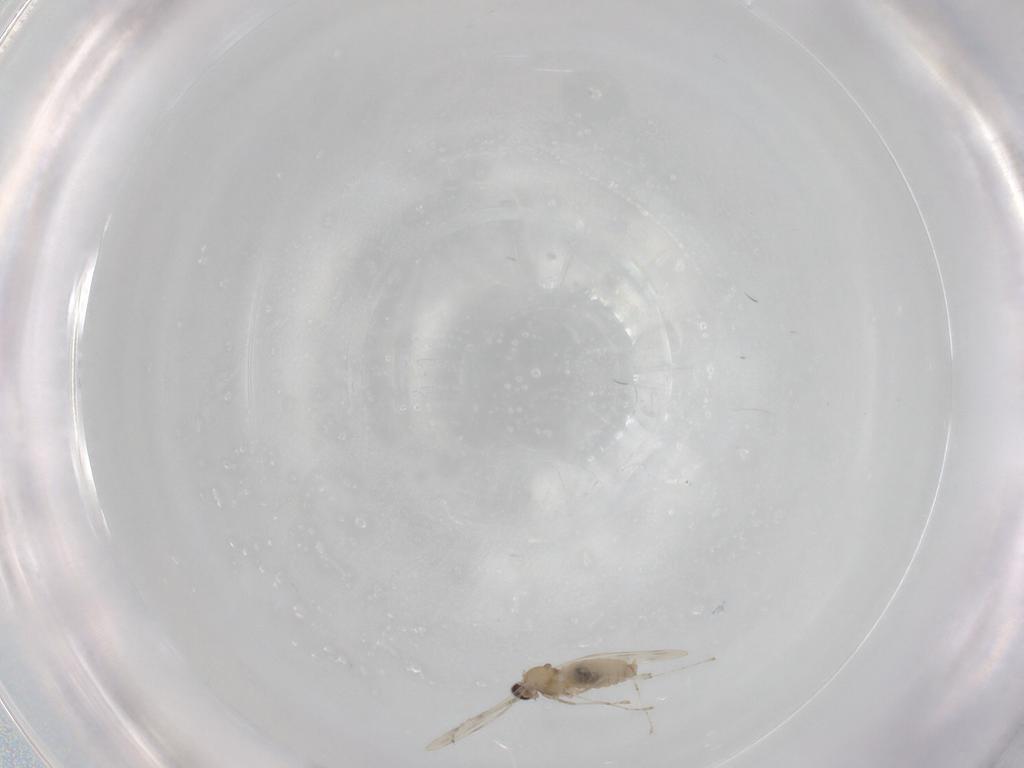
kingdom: Animalia
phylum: Arthropoda
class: Insecta
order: Diptera
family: Cecidomyiidae
